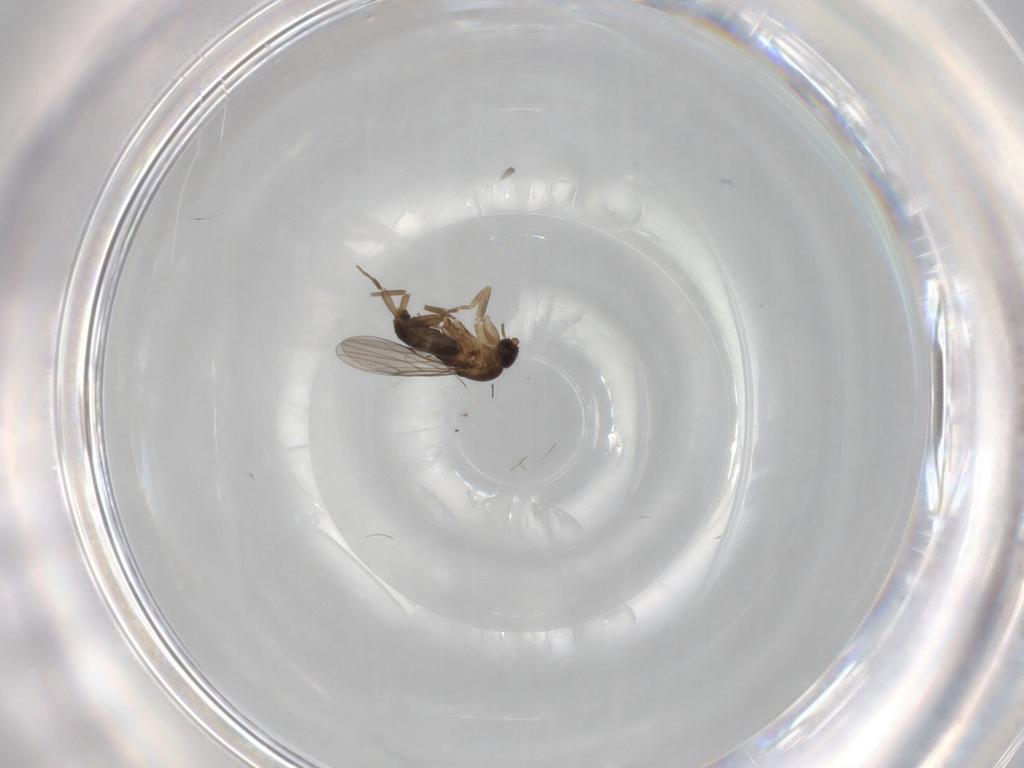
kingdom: Animalia
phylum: Arthropoda
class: Insecta
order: Diptera
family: Phoridae
